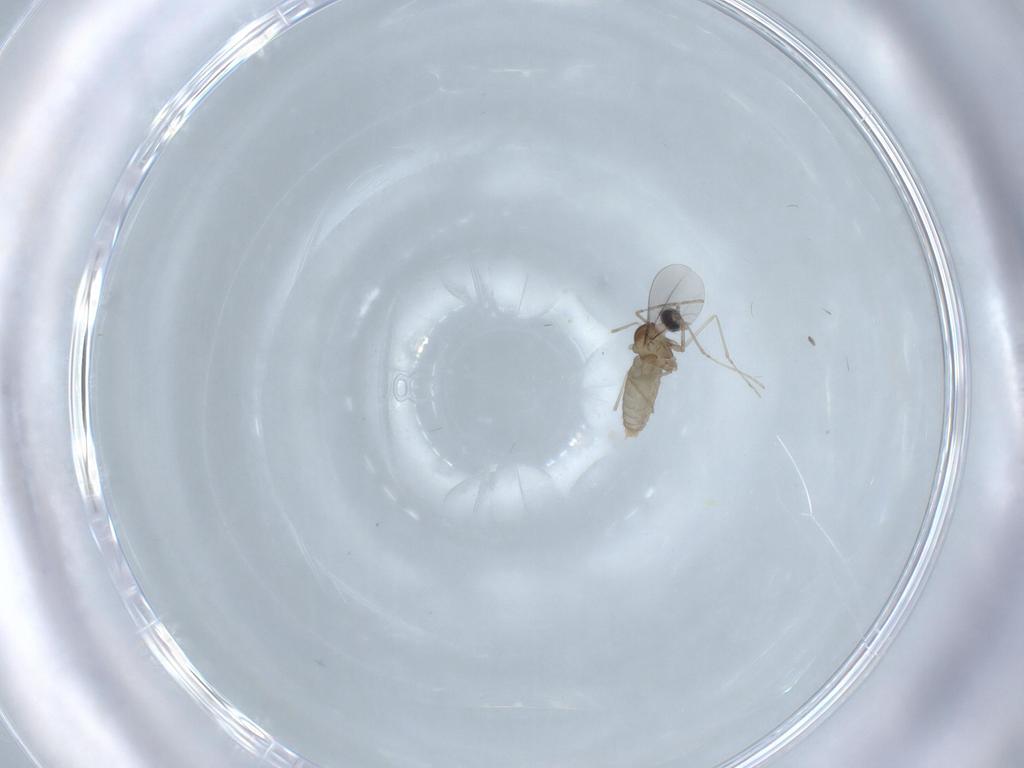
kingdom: Animalia
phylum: Arthropoda
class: Insecta
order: Diptera
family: Cecidomyiidae
